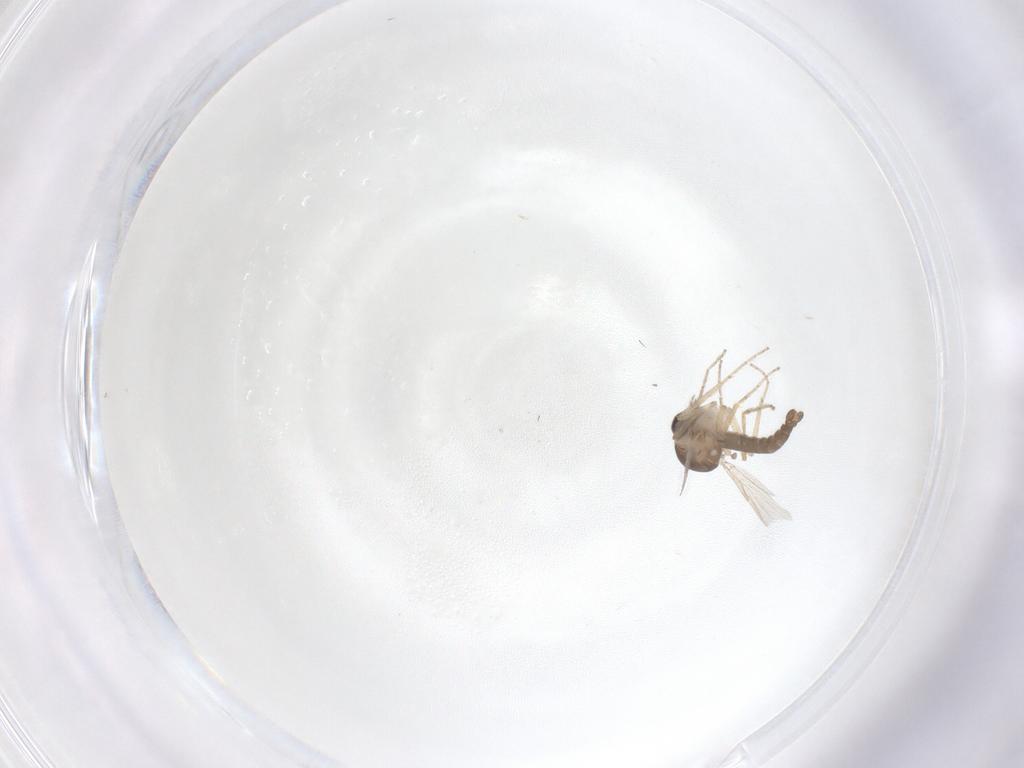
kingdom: Animalia
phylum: Arthropoda
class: Insecta
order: Diptera
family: Ceratopogonidae
